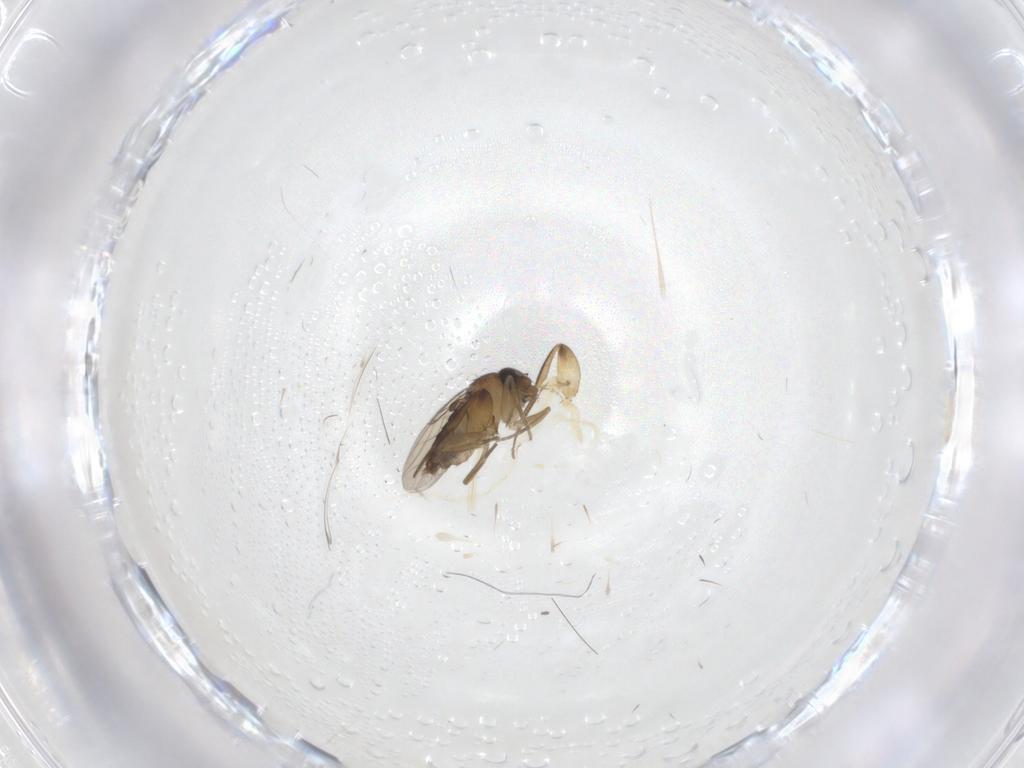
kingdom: Animalia
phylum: Arthropoda
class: Insecta
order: Diptera
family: Phoridae
